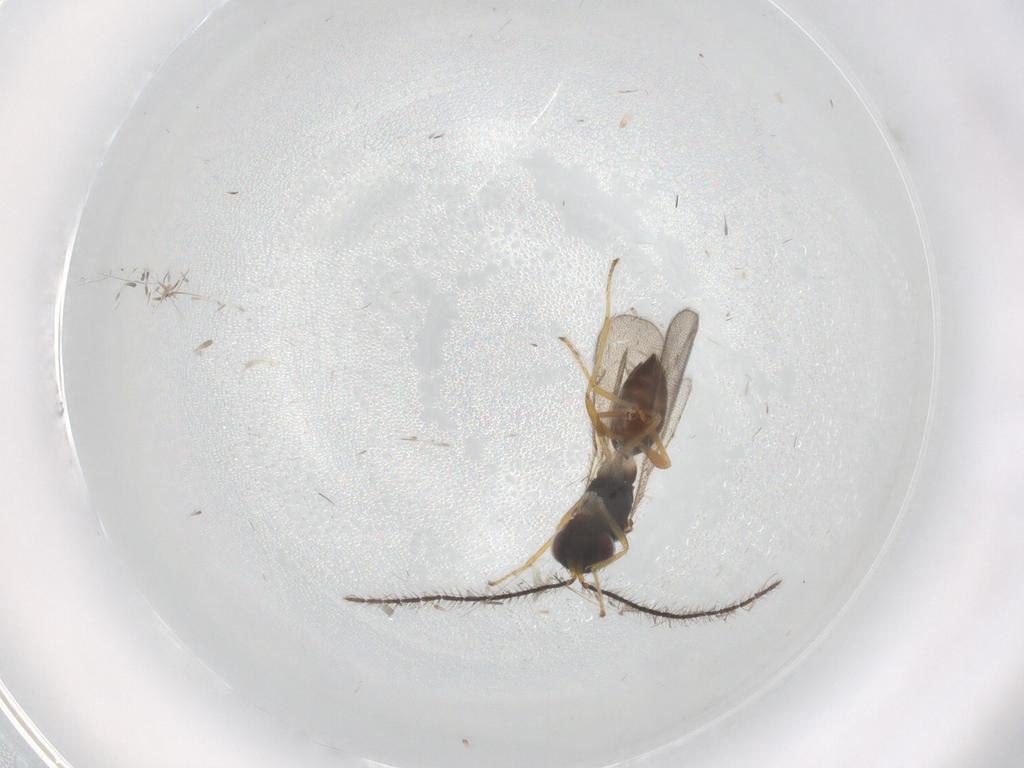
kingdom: Animalia
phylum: Arthropoda
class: Insecta
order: Hymenoptera
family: Diparidae
